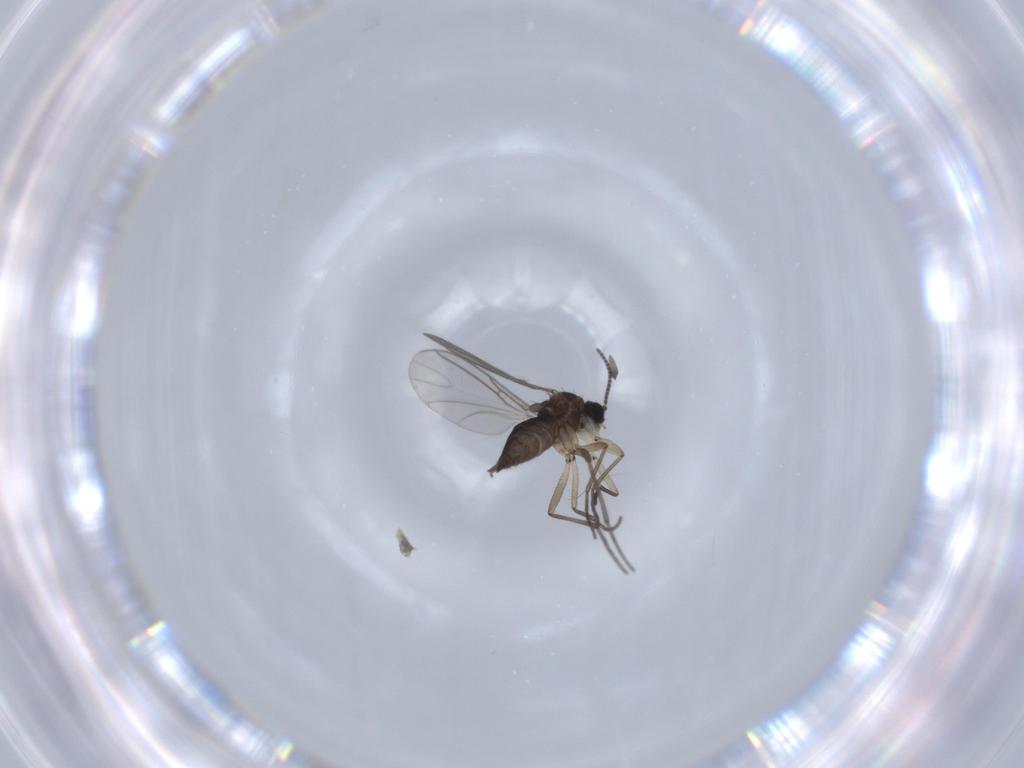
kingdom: Animalia
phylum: Arthropoda
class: Insecta
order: Diptera
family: Sciaridae
